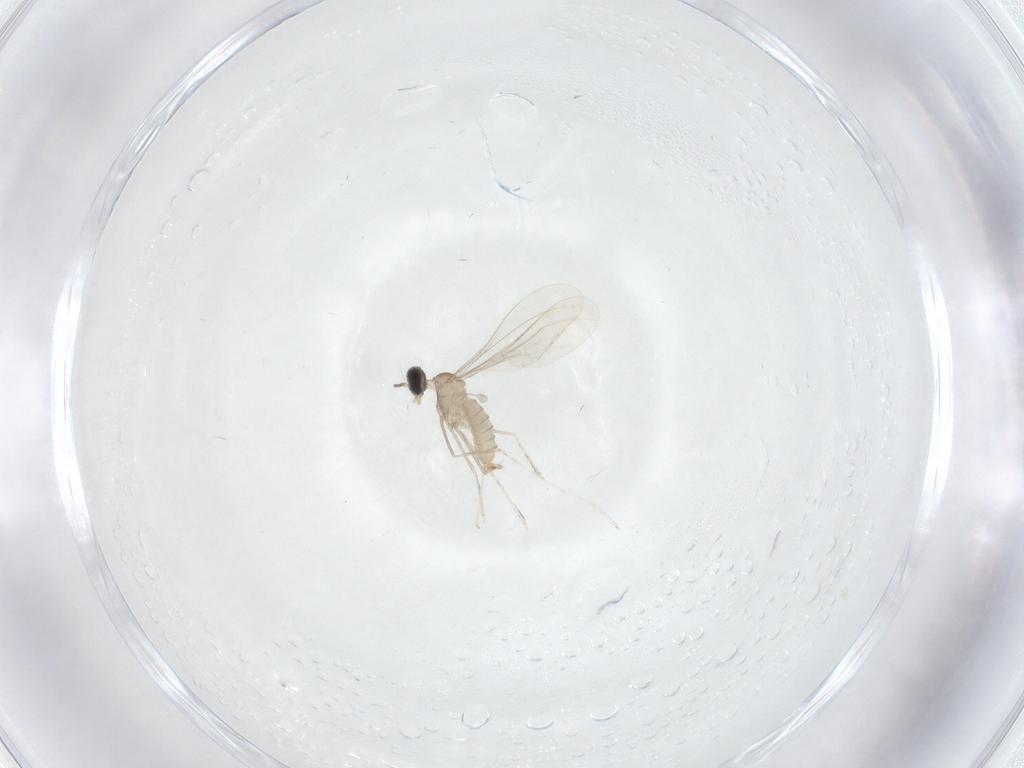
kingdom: Animalia
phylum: Arthropoda
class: Insecta
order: Diptera
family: Cecidomyiidae
